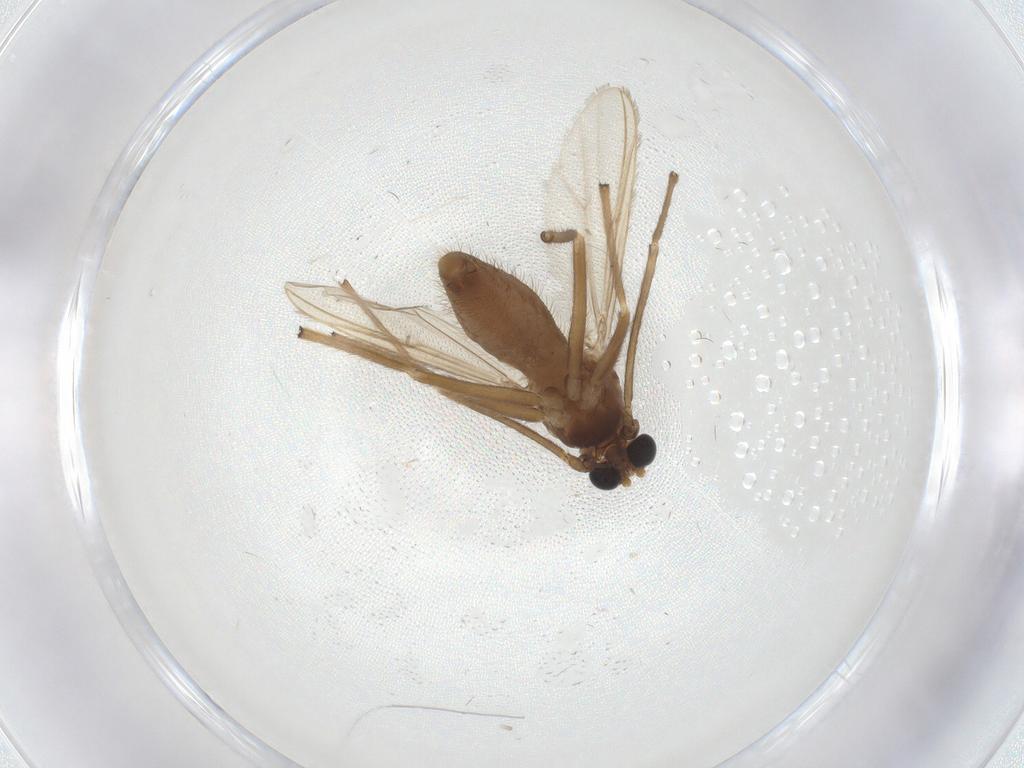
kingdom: Animalia
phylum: Arthropoda
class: Insecta
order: Diptera
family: Chironomidae
